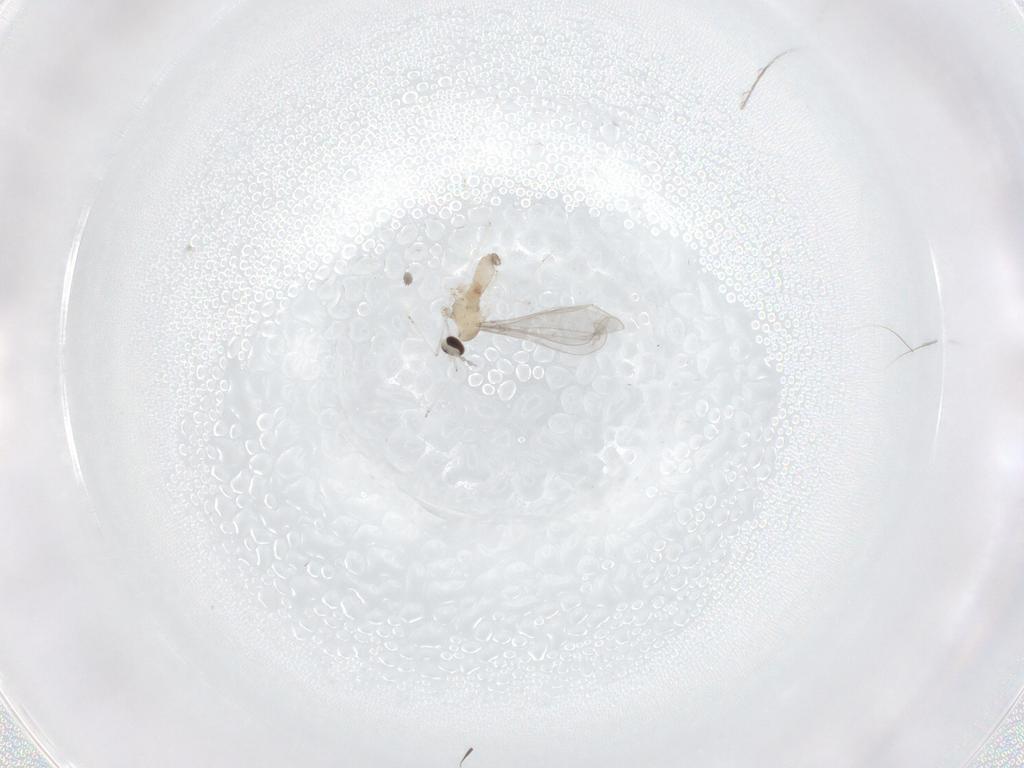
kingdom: Animalia
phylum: Arthropoda
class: Insecta
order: Diptera
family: Cecidomyiidae
